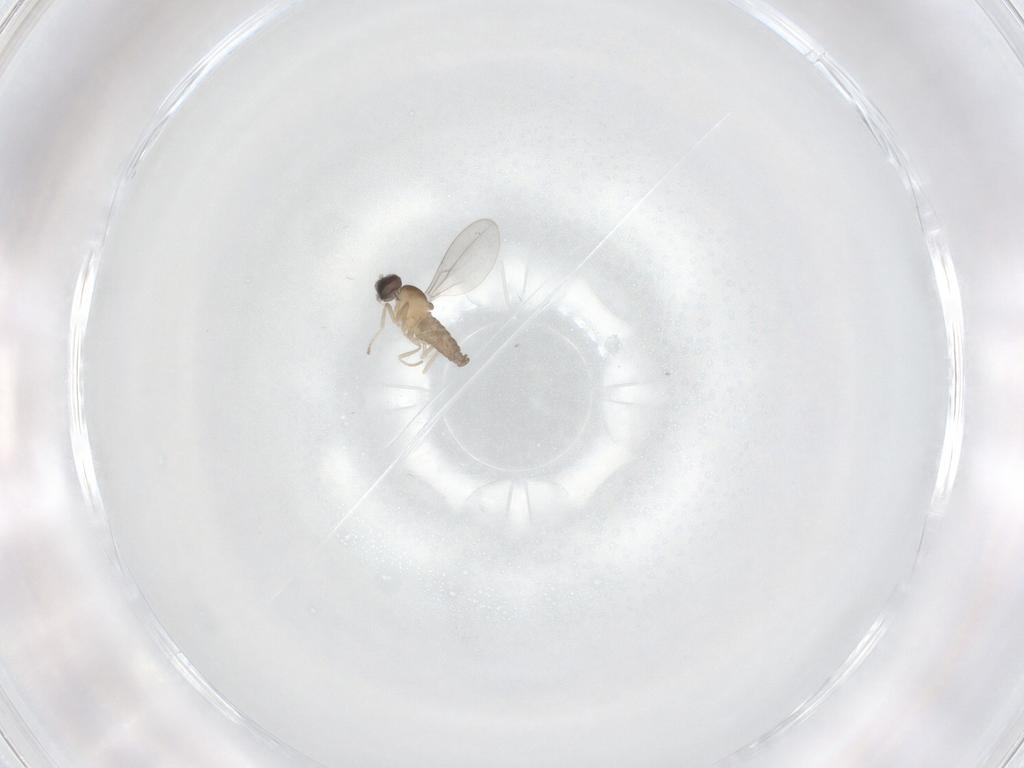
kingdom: Animalia
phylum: Arthropoda
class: Insecta
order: Diptera
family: Cecidomyiidae
